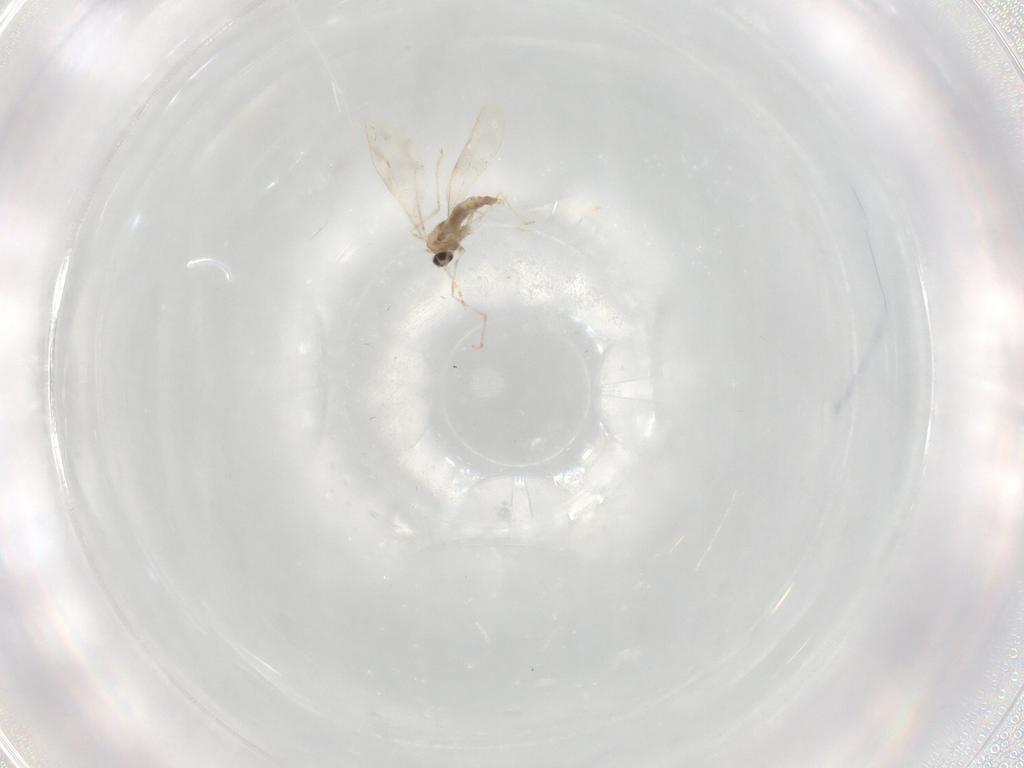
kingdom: Animalia
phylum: Arthropoda
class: Insecta
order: Diptera
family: Cecidomyiidae
